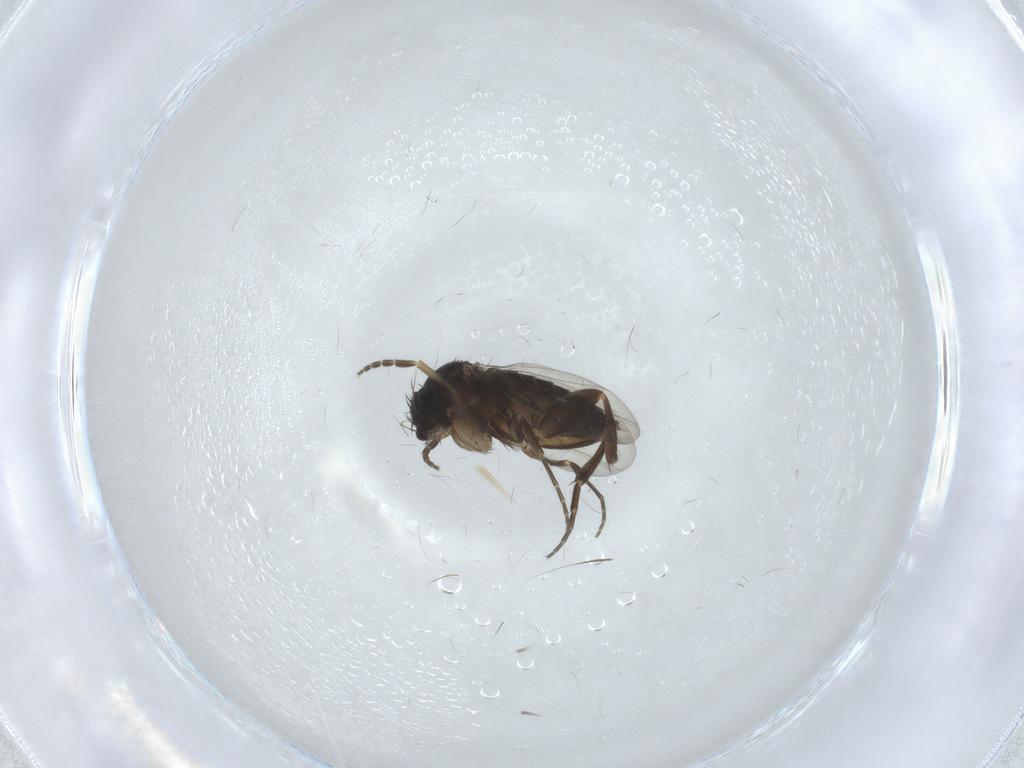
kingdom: Animalia
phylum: Arthropoda
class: Insecta
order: Diptera
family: Phoridae
